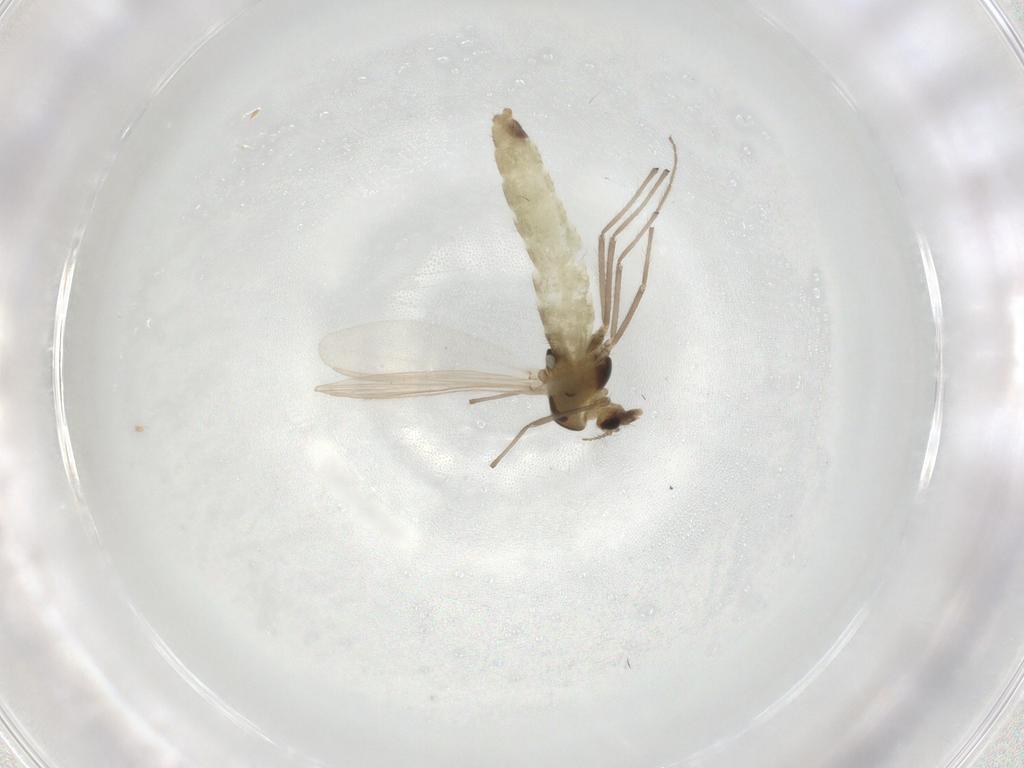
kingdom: Animalia
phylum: Arthropoda
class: Insecta
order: Diptera
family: Chironomidae
